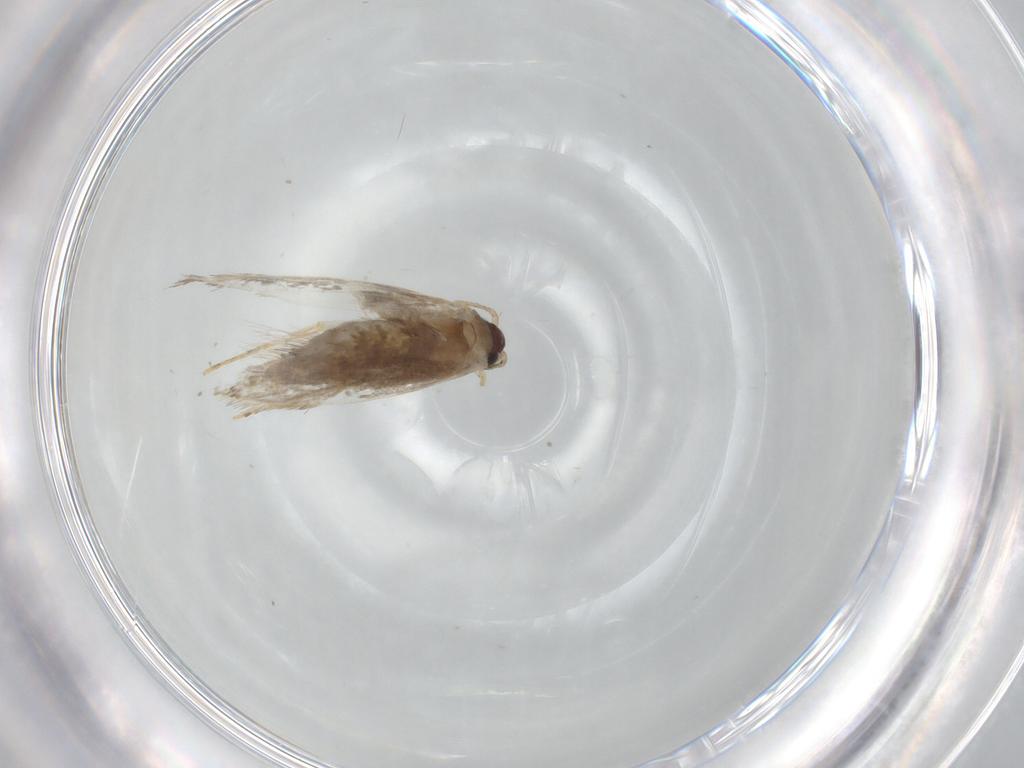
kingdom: Animalia
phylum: Arthropoda
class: Insecta
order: Lepidoptera
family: Tineidae
